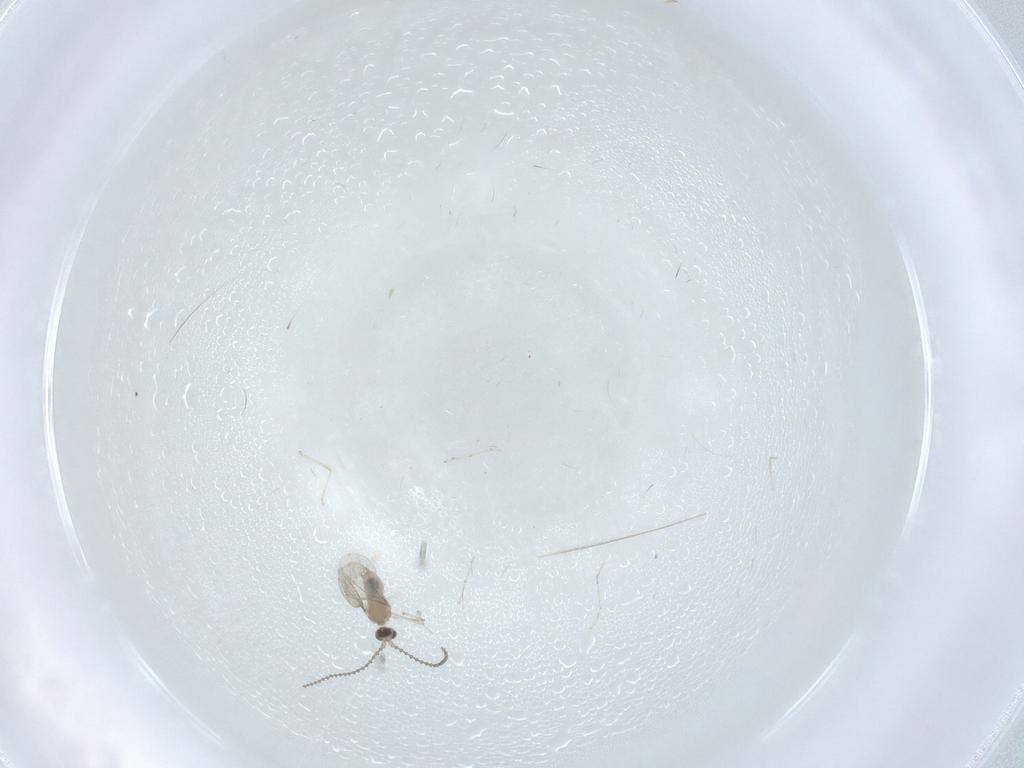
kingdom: Animalia
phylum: Arthropoda
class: Insecta
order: Diptera
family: Cecidomyiidae
